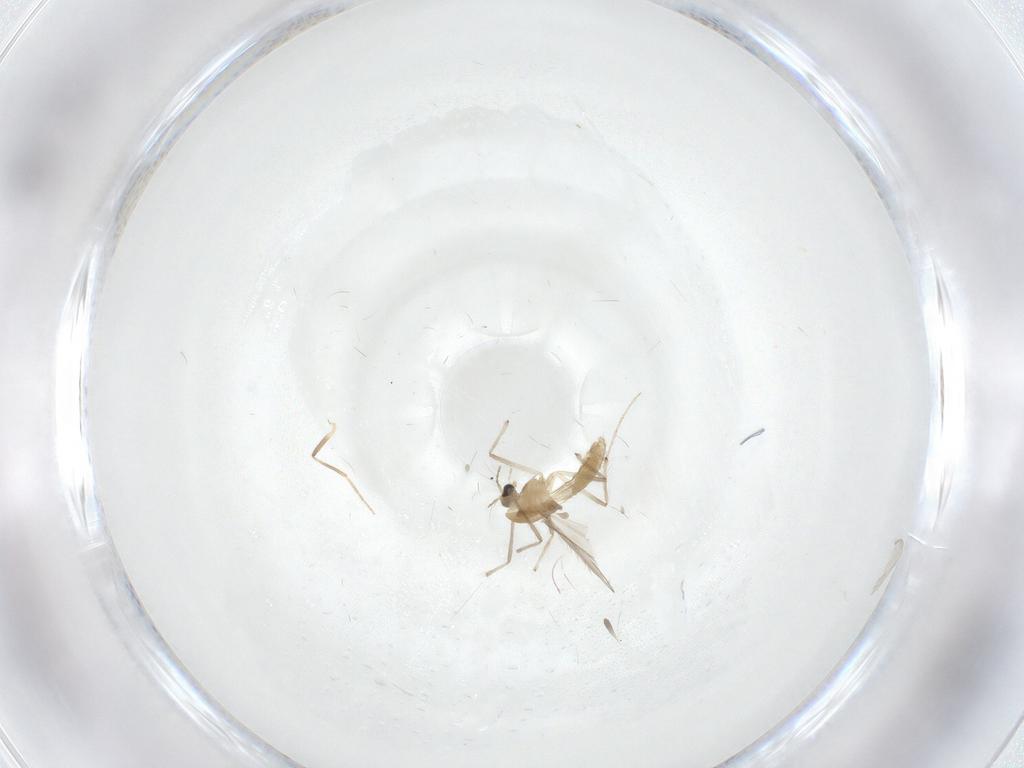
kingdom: Animalia
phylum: Arthropoda
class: Insecta
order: Diptera
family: Chironomidae
